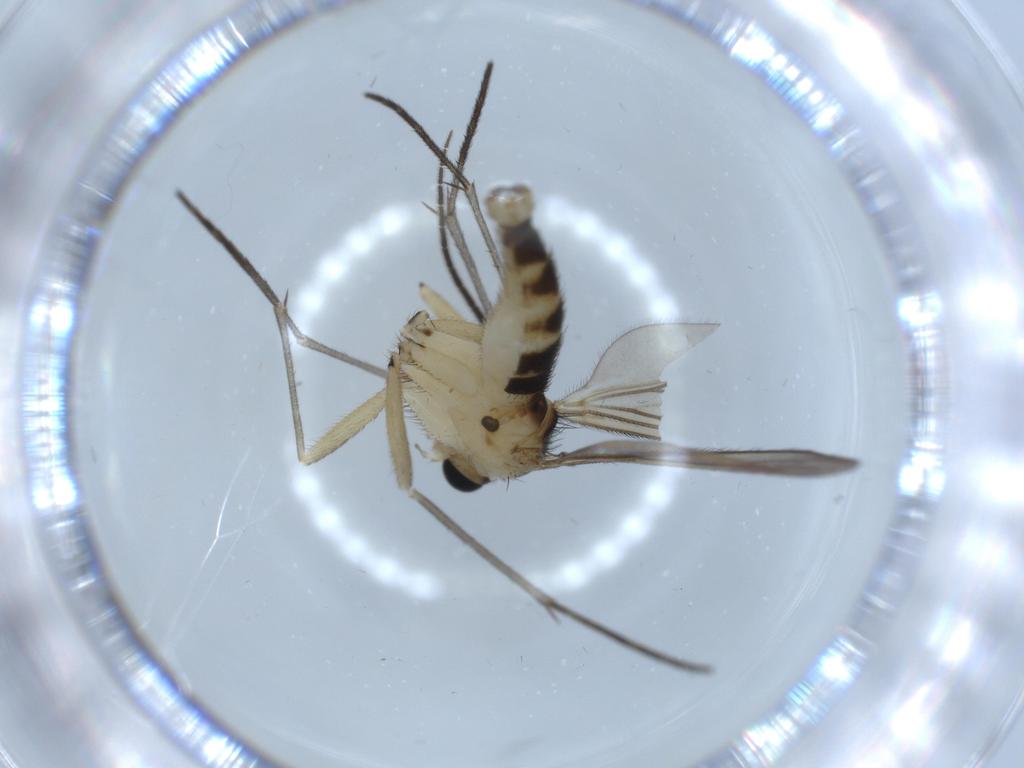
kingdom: Animalia
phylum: Arthropoda
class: Insecta
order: Diptera
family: Sciaridae
